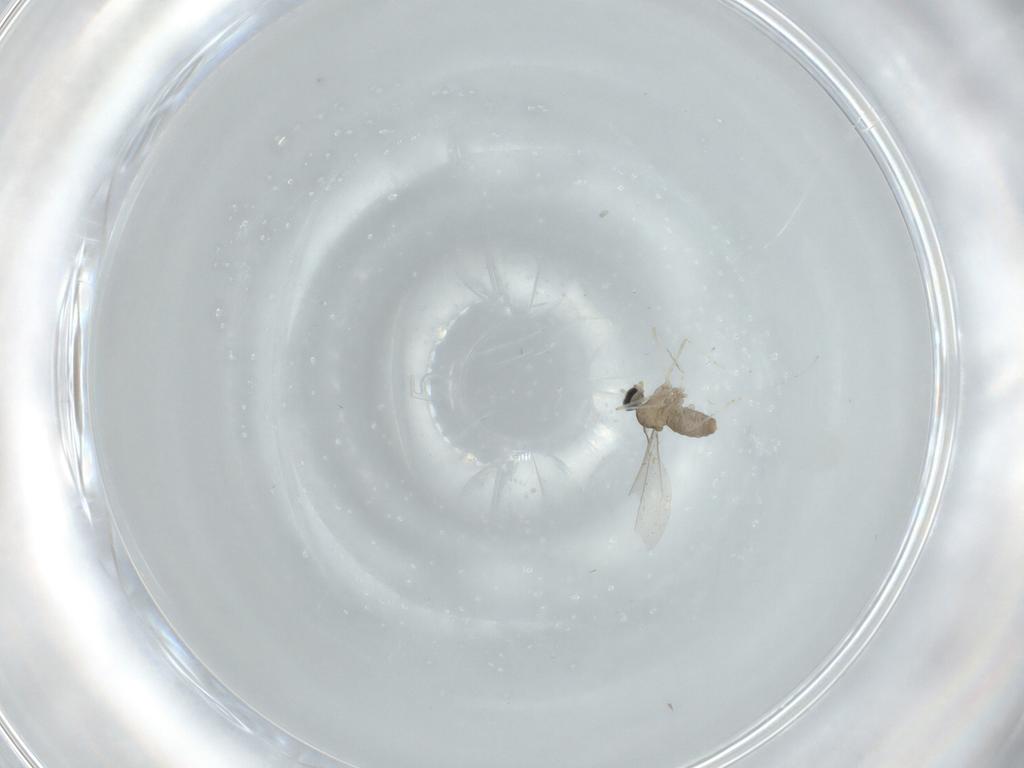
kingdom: Animalia
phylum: Arthropoda
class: Insecta
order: Diptera
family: Cecidomyiidae
